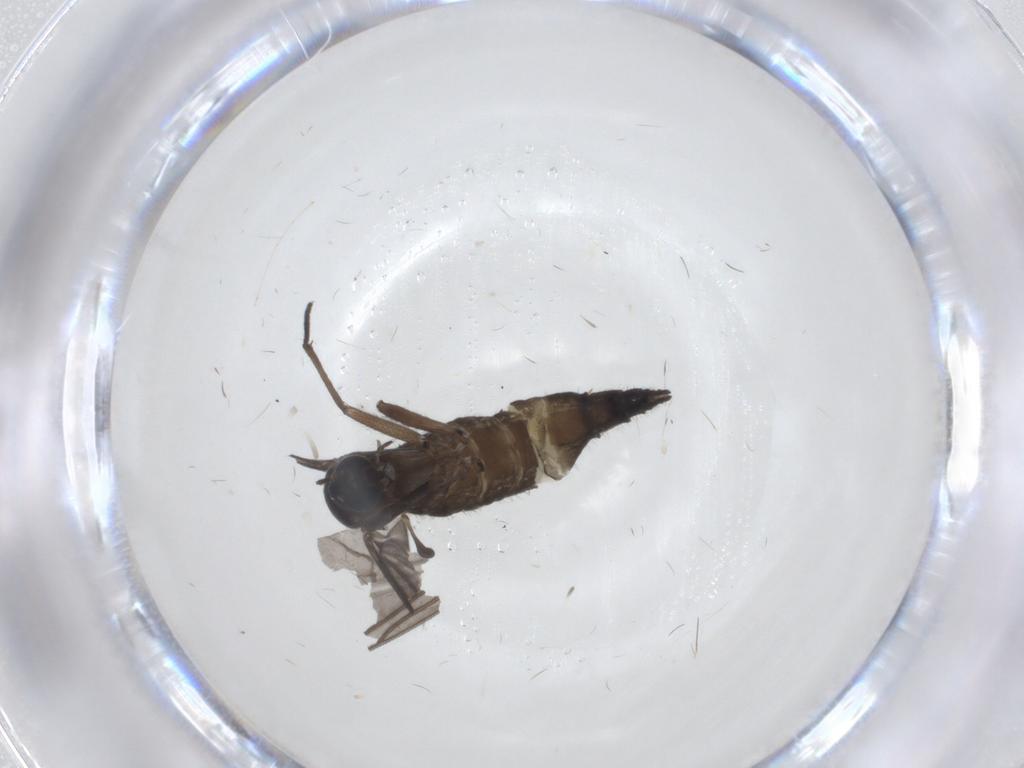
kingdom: Animalia
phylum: Arthropoda
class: Insecta
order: Diptera
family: Sciaridae
